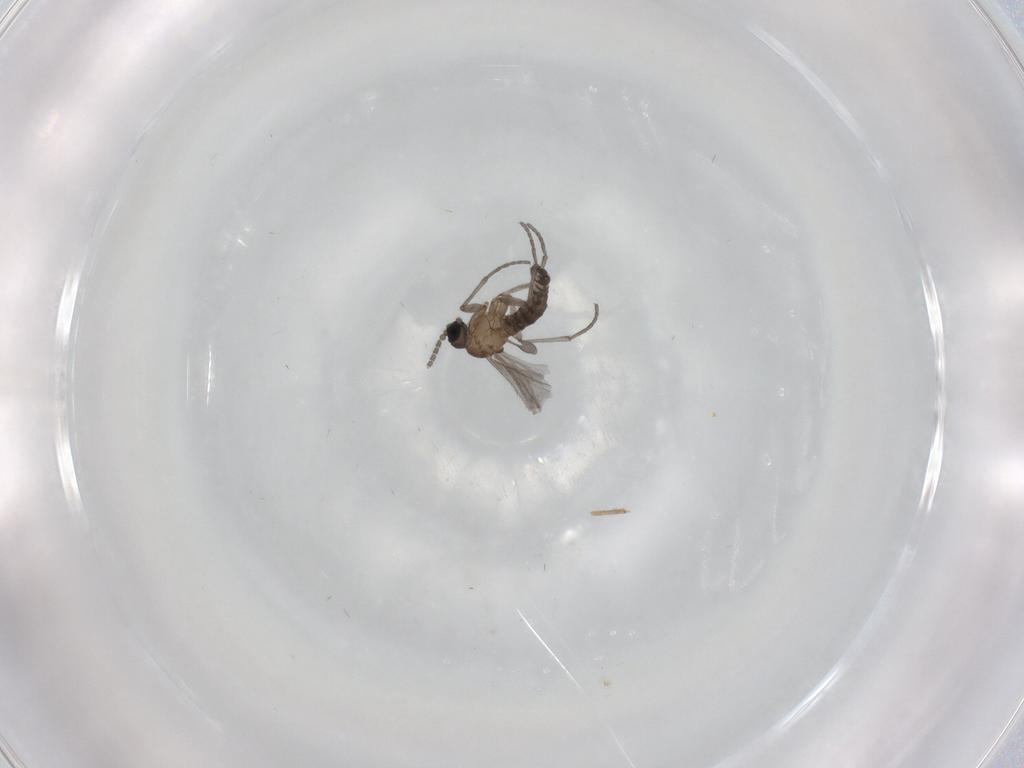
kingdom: Animalia
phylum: Arthropoda
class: Insecta
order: Diptera
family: Sciaridae
